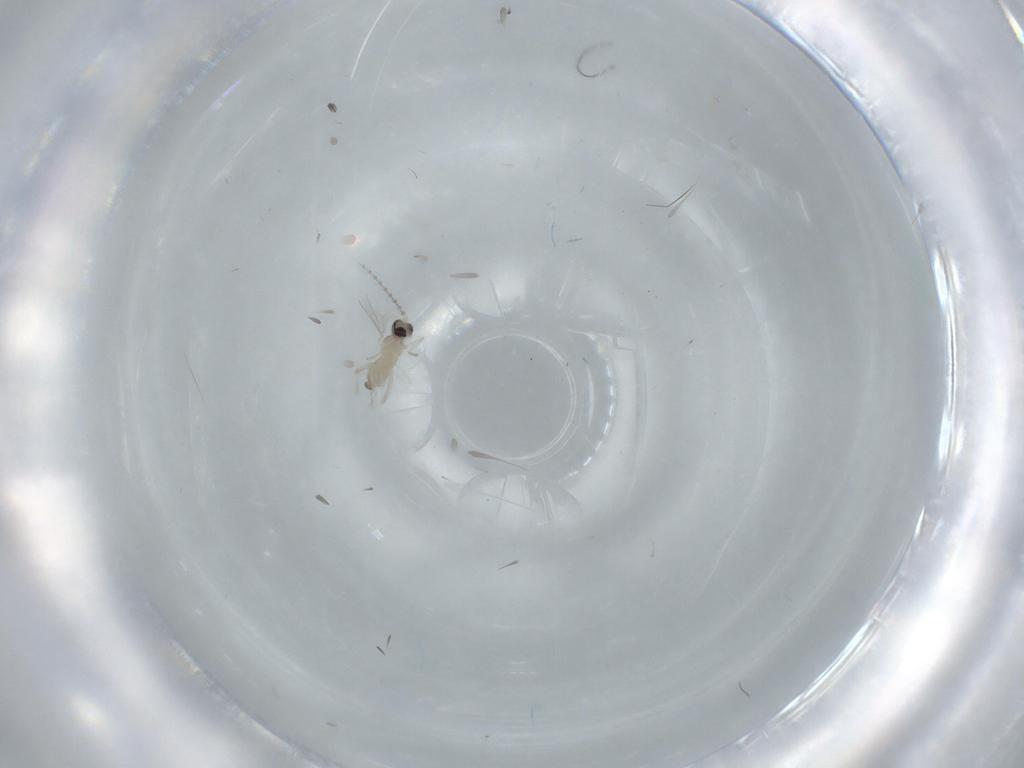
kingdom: Animalia
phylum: Arthropoda
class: Insecta
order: Diptera
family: Cecidomyiidae
